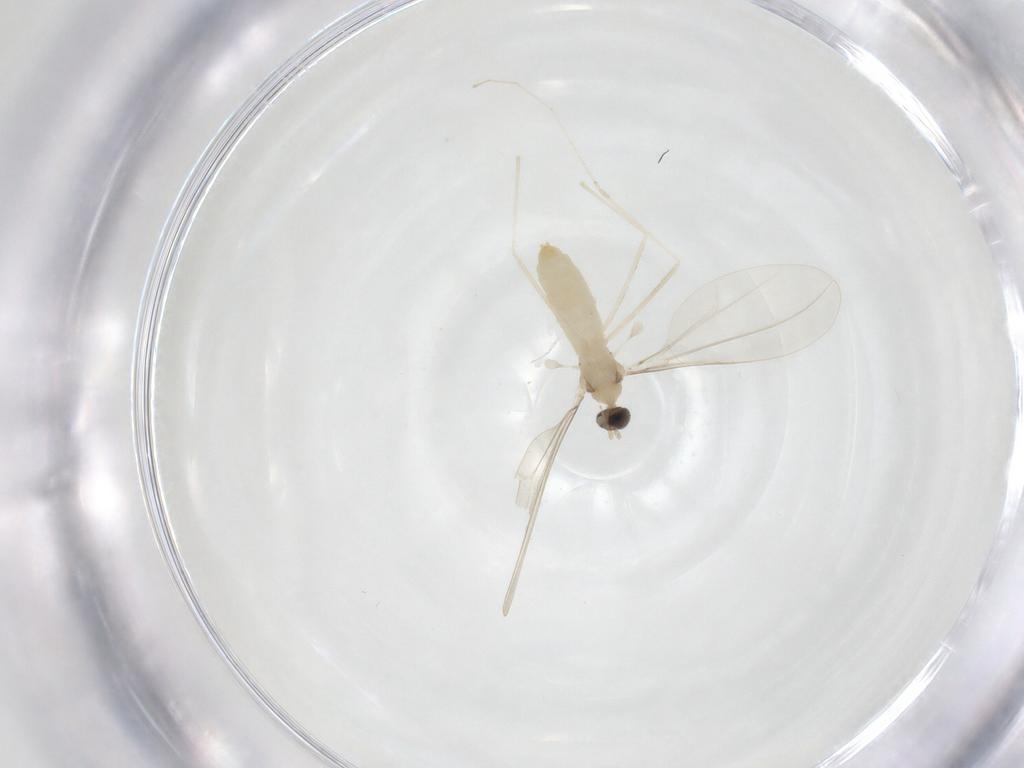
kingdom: Animalia
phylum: Arthropoda
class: Insecta
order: Diptera
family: Cecidomyiidae
